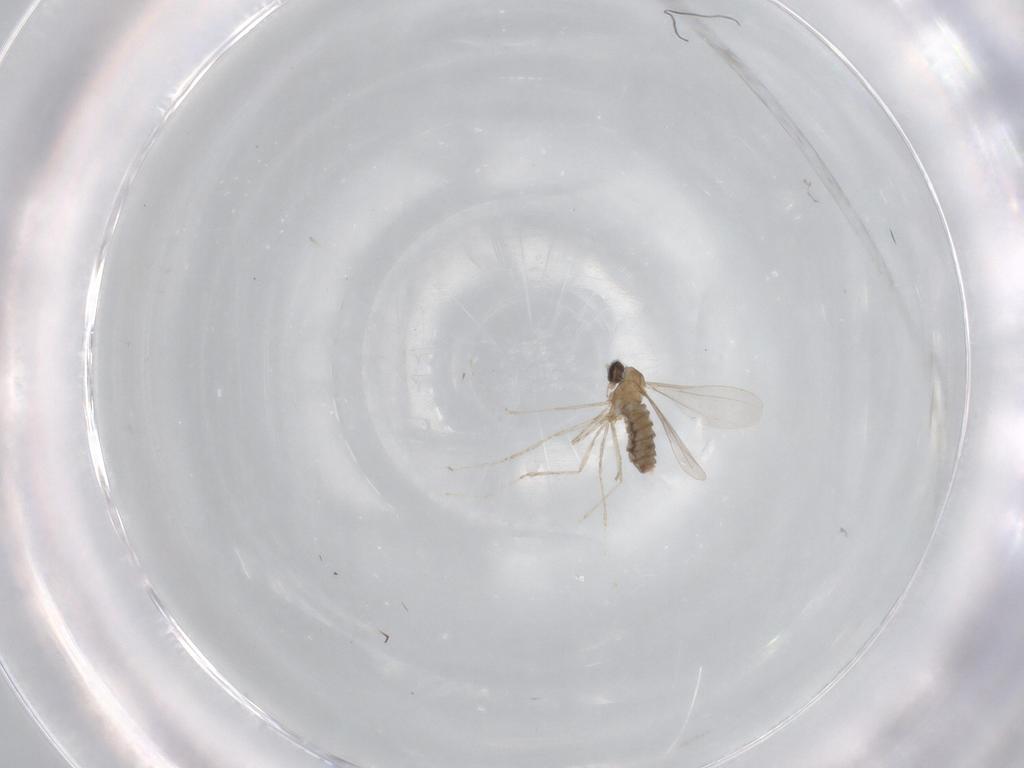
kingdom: Animalia
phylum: Arthropoda
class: Insecta
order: Diptera
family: Cecidomyiidae
